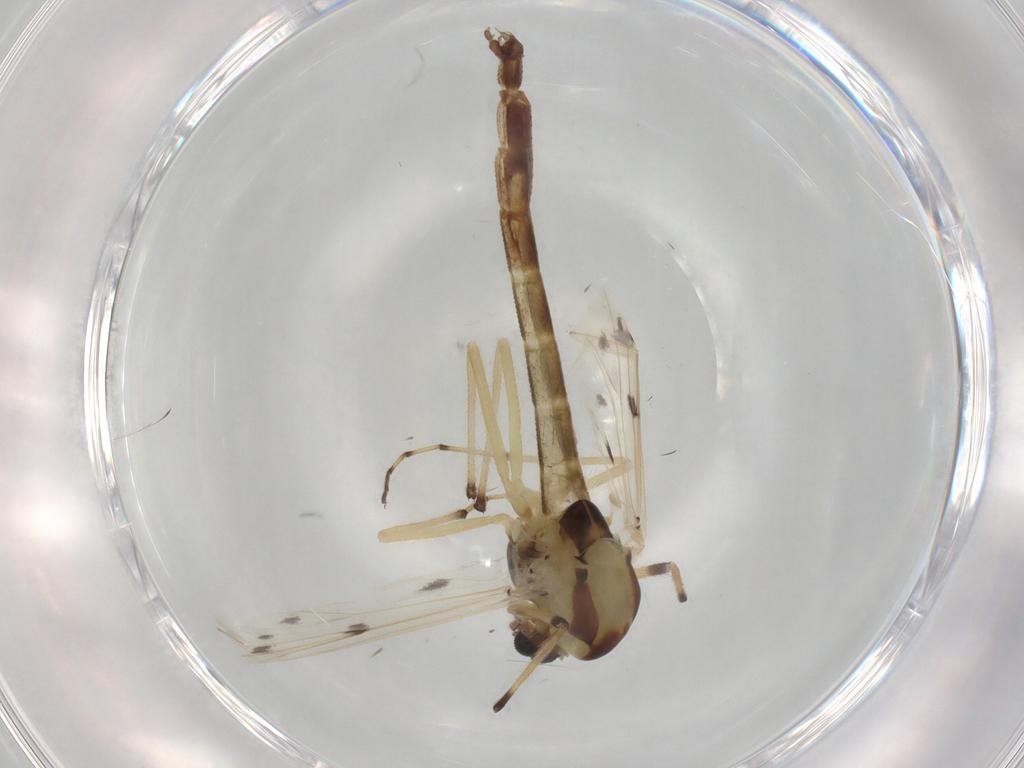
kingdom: Animalia
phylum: Arthropoda
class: Insecta
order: Diptera
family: Chironomidae
